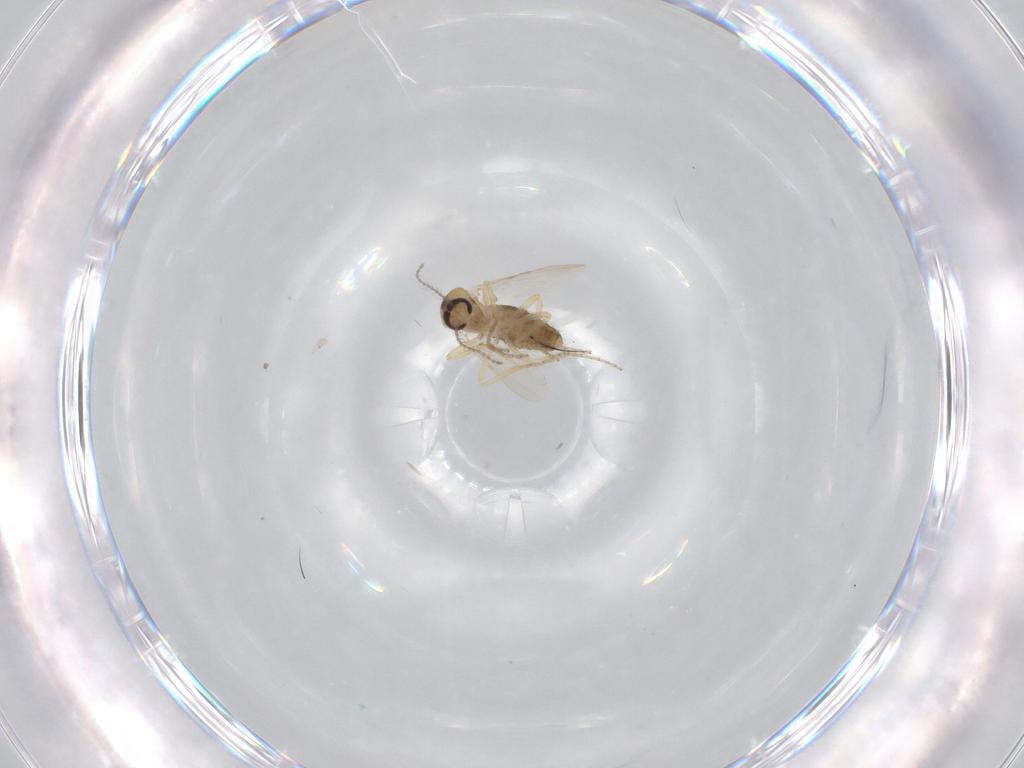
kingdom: Animalia
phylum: Arthropoda
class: Insecta
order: Diptera
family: Ceratopogonidae
